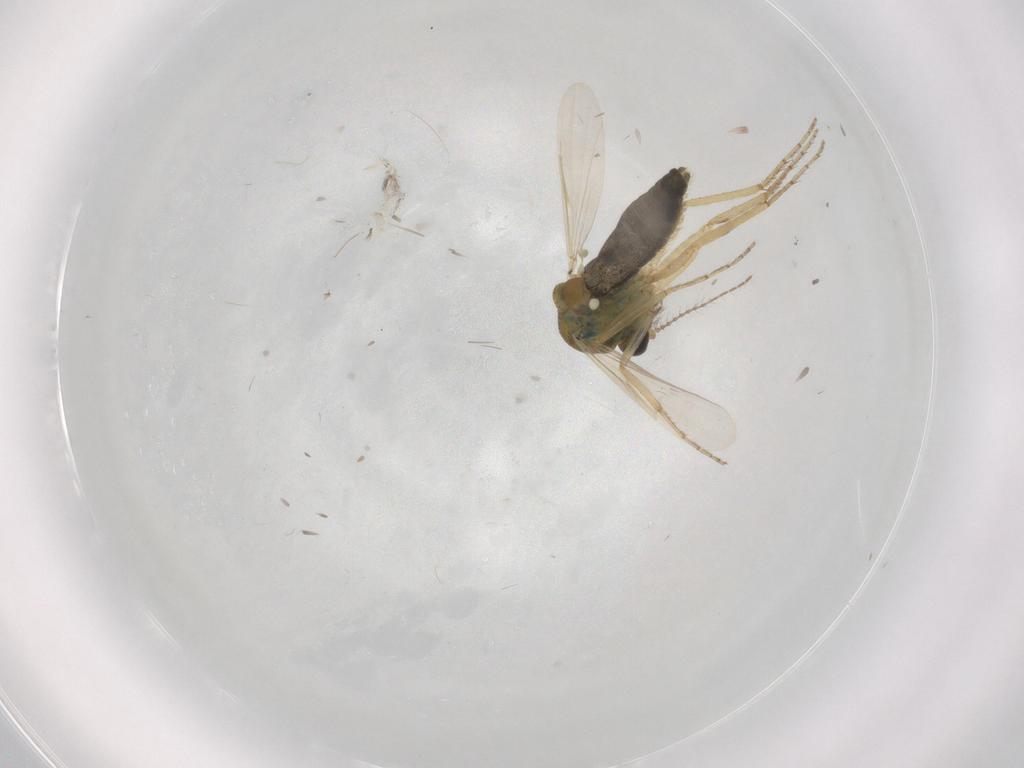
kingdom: Animalia
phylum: Arthropoda
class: Insecta
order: Diptera
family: Ceratopogonidae
